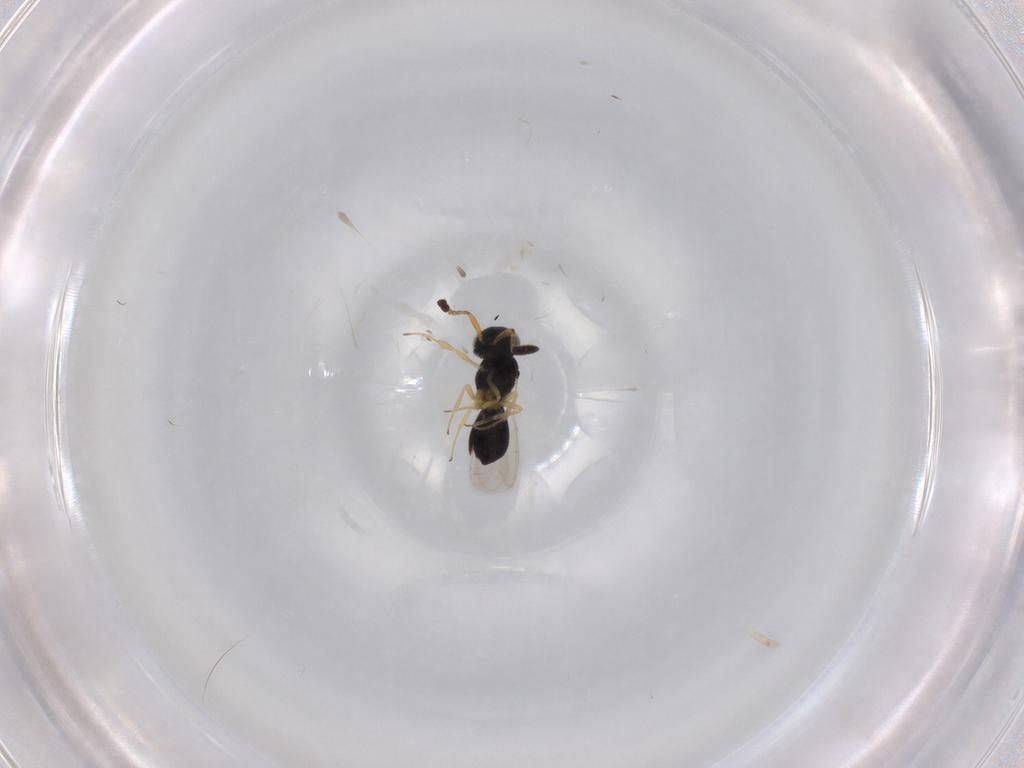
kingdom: Animalia
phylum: Arthropoda
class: Insecta
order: Hymenoptera
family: Scelionidae
